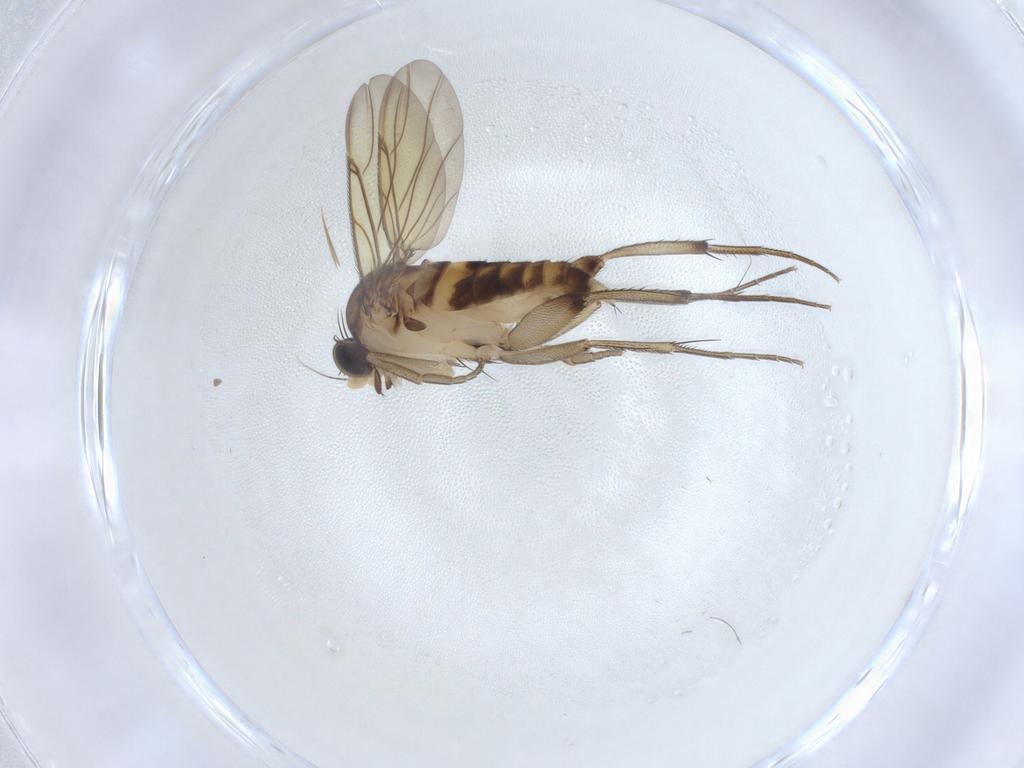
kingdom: Animalia
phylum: Arthropoda
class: Insecta
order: Diptera
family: Phoridae
